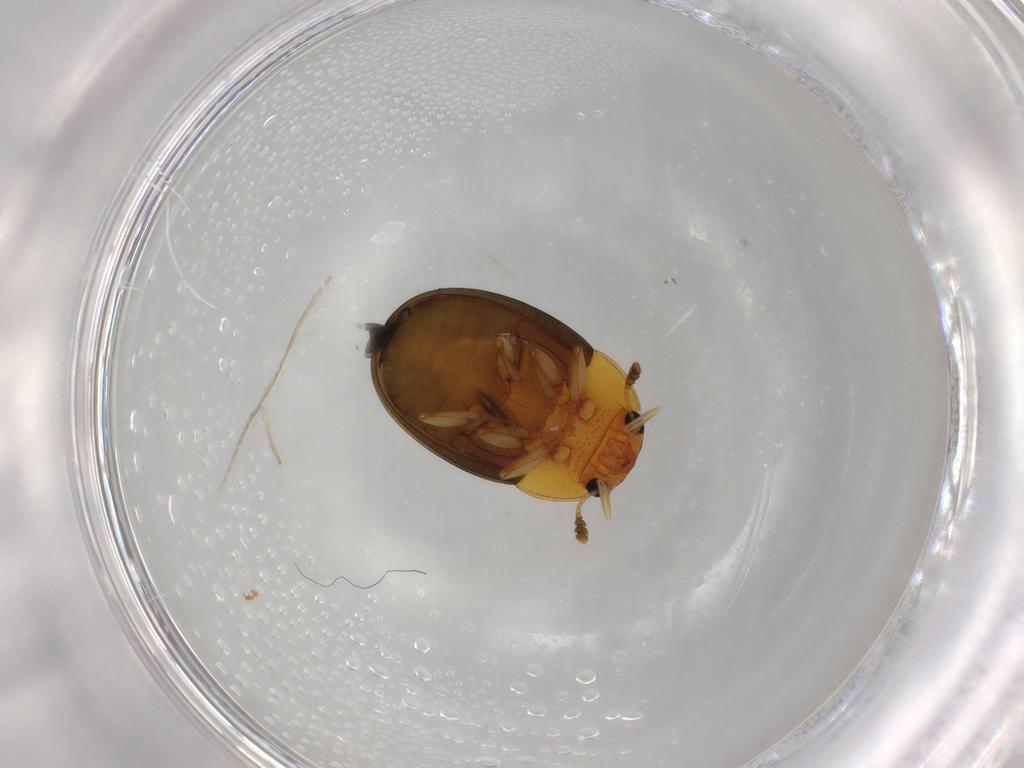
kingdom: Animalia
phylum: Arthropoda
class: Insecta
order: Coleoptera
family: Erotylidae
